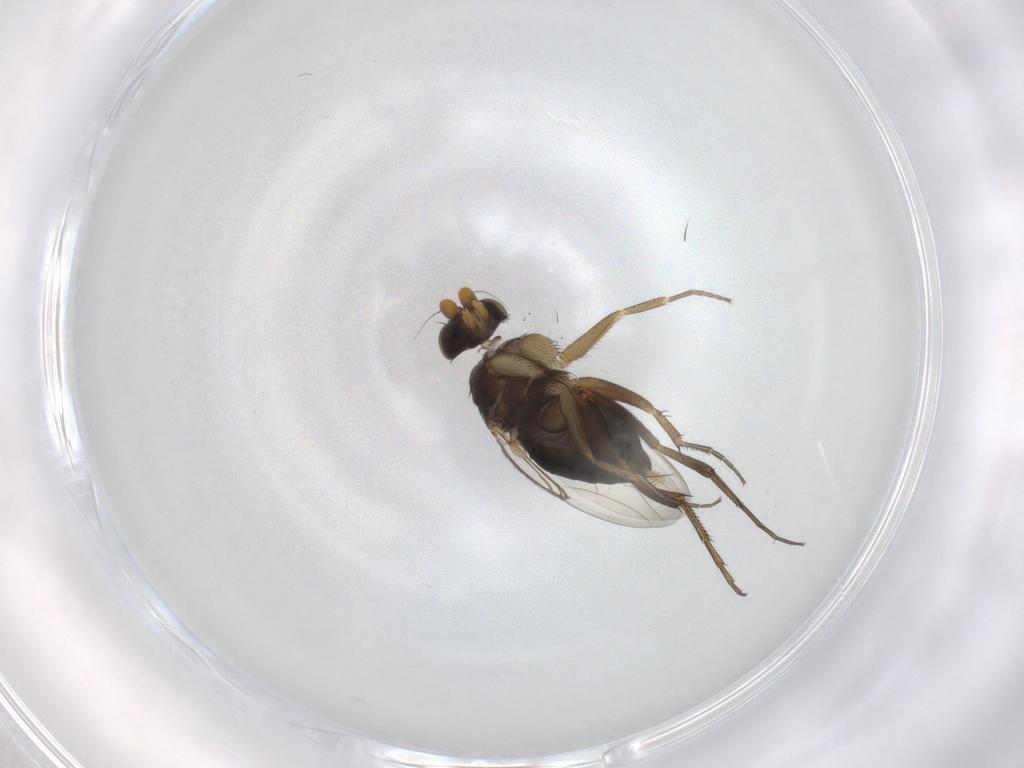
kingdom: Animalia
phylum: Arthropoda
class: Insecta
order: Diptera
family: Phoridae
